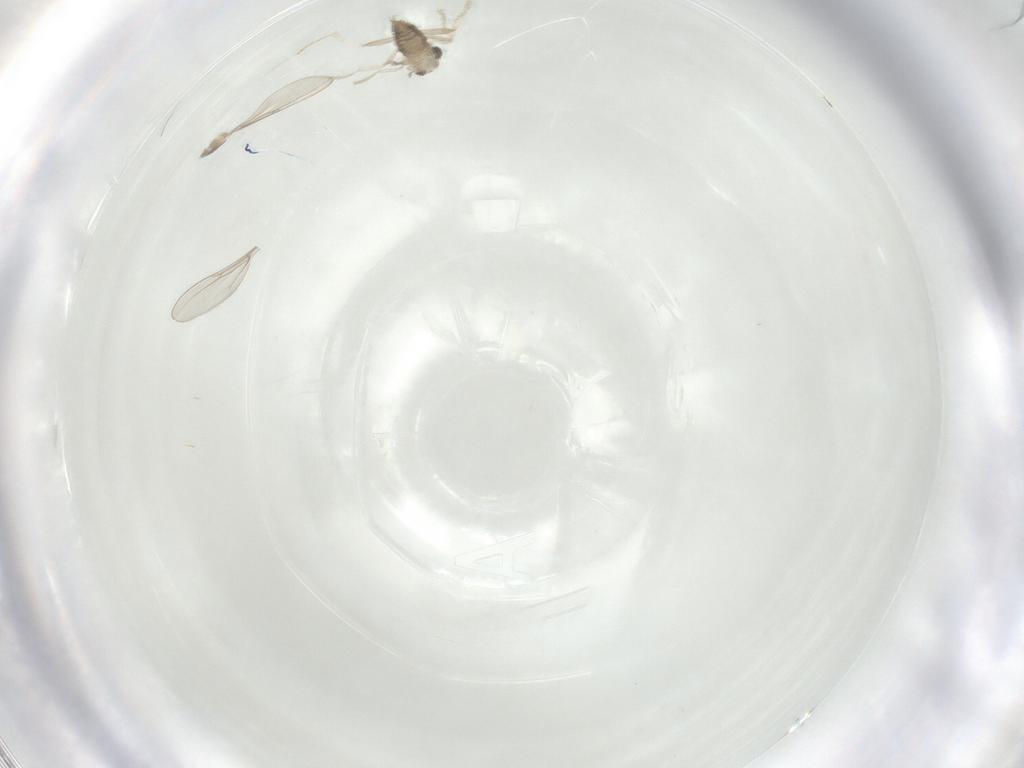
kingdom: Animalia
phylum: Arthropoda
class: Insecta
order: Diptera
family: Cecidomyiidae
